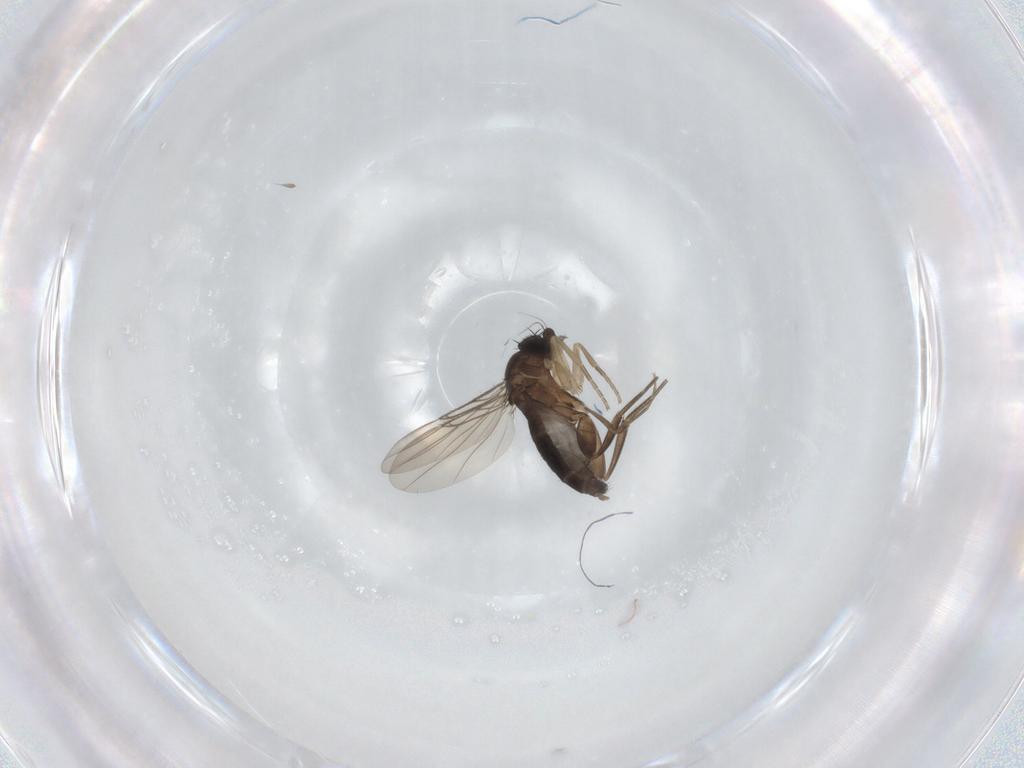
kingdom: Animalia
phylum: Arthropoda
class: Insecta
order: Diptera
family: Phoridae
